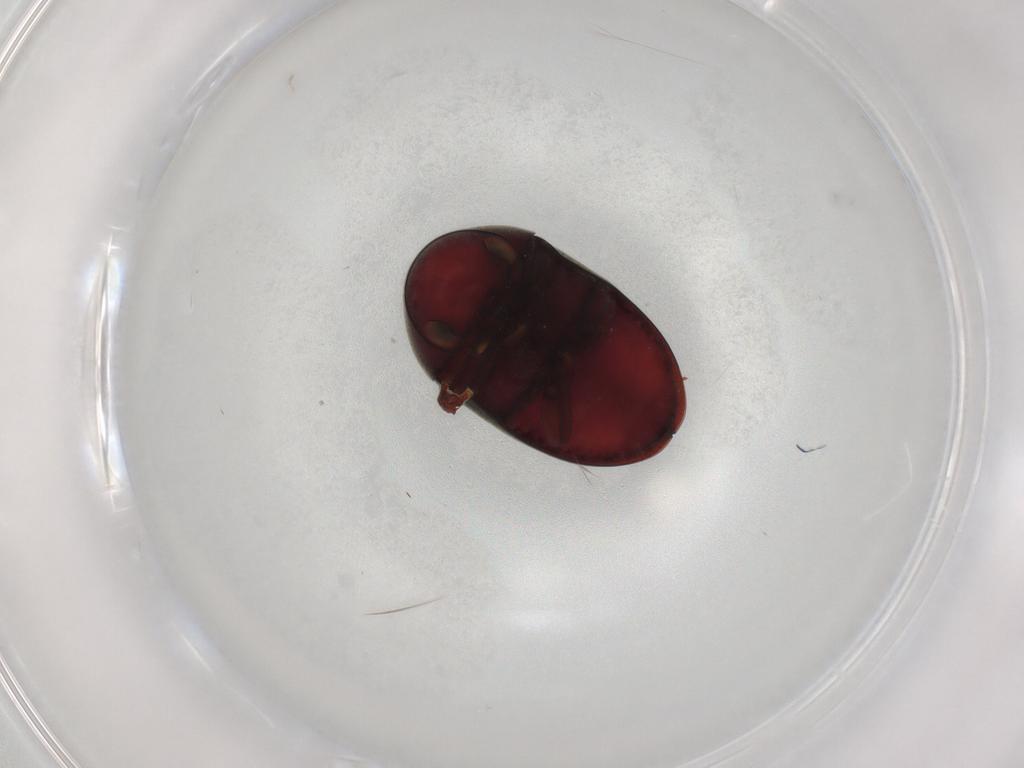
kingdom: Animalia
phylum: Arthropoda
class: Insecta
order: Coleoptera
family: Ptinidae
